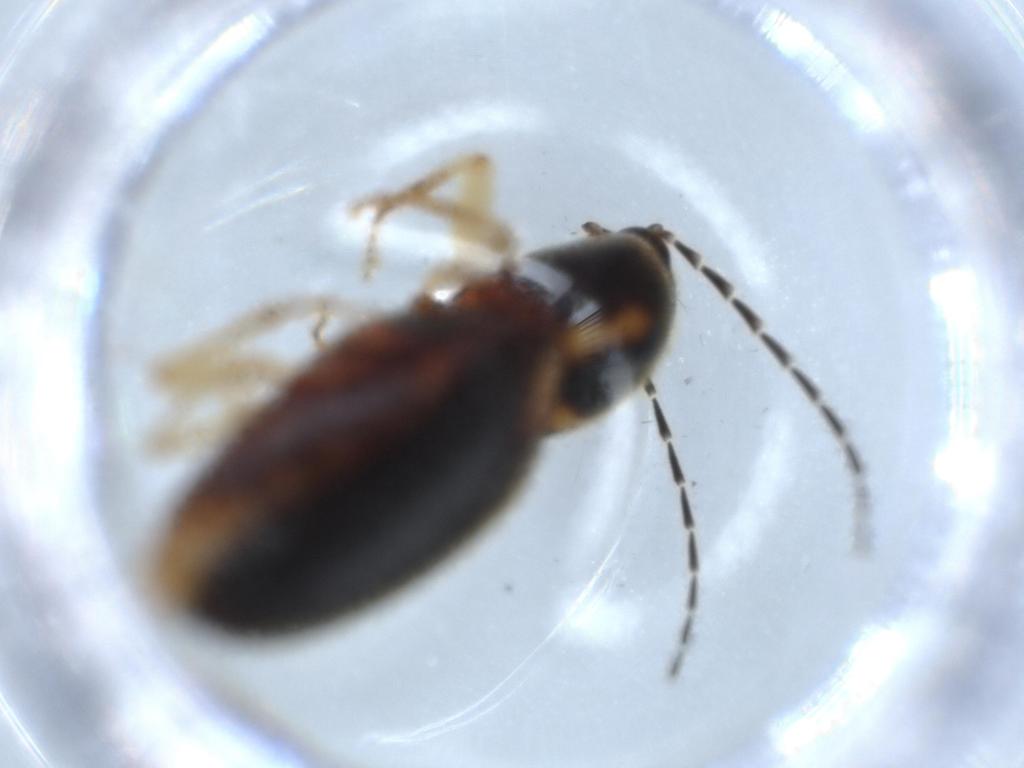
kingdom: Animalia
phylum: Arthropoda
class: Insecta
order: Coleoptera
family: Elateridae
